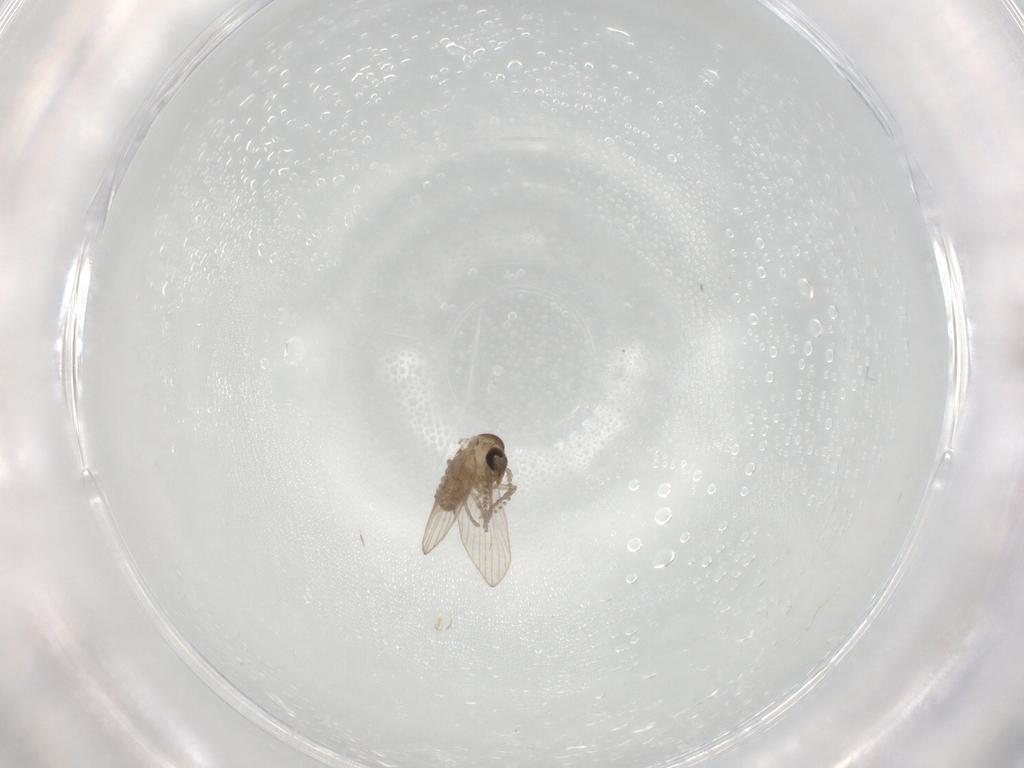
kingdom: Animalia
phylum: Arthropoda
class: Insecta
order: Diptera
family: Psychodidae
